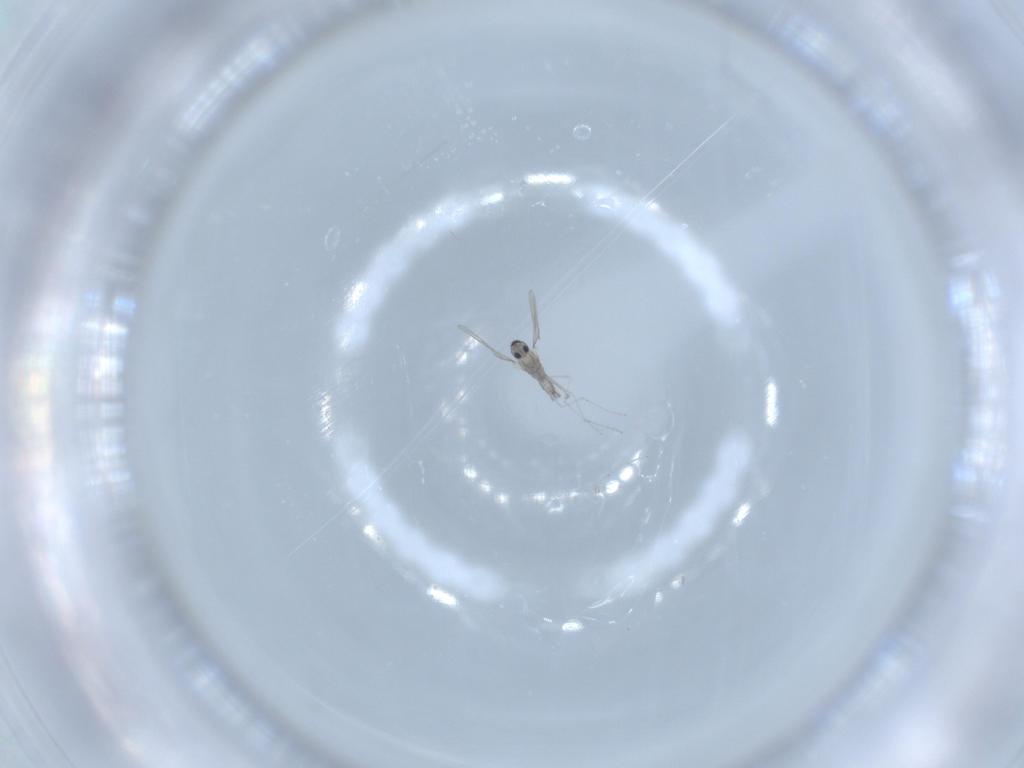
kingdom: Animalia
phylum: Arthropoda
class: Insecta
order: Diptera
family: Cecidomyiidae
